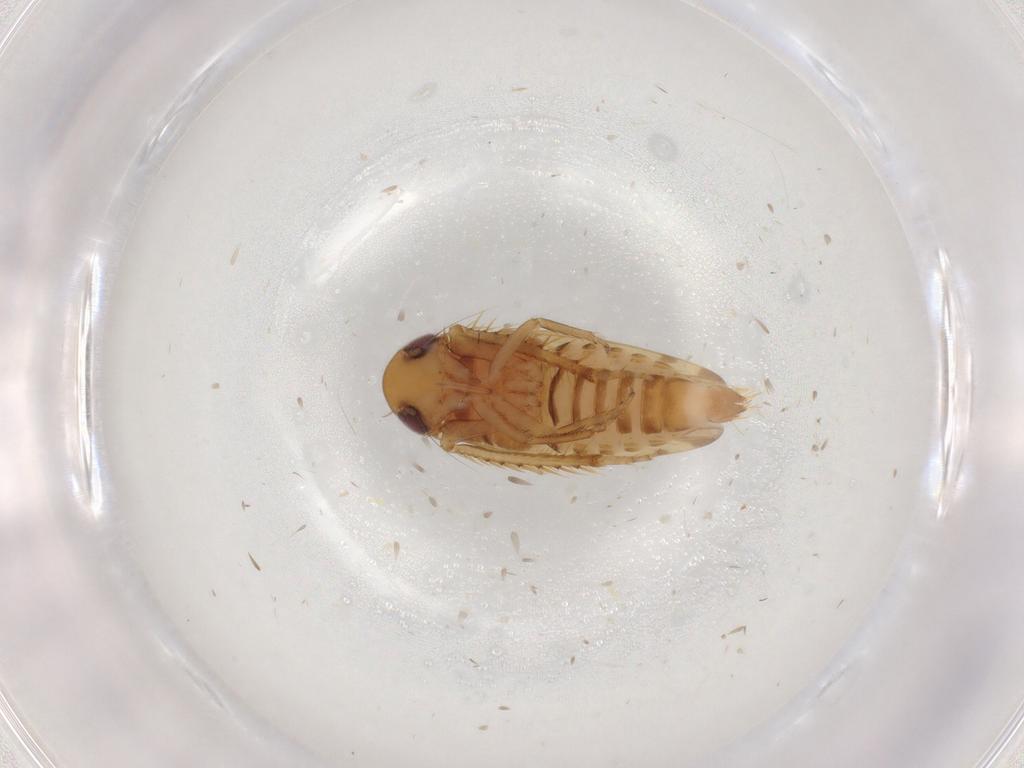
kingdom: Animalia
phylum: Arthropoda
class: Insecta
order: Hemiptera
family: Cicadellidae
